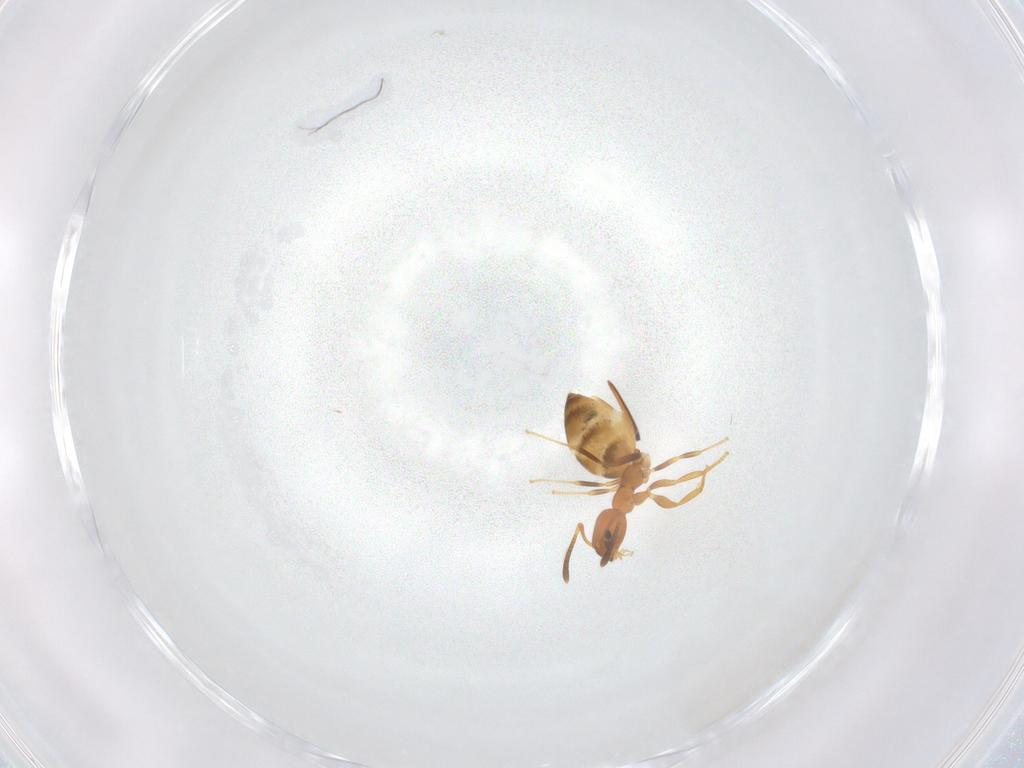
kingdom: Animalia
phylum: Arthropoda
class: Insecta
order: Hymenoptera
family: Formicidae
